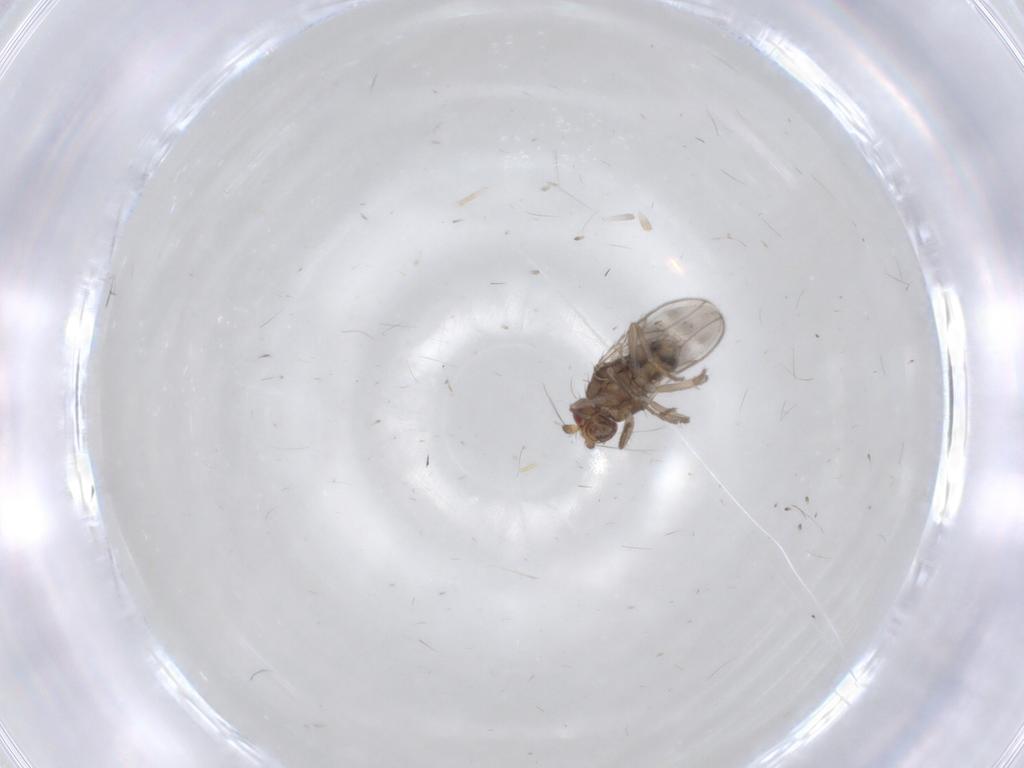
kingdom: Animalia
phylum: Arthropoda
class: Insecta
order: Diptera
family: Sphaeroceridae
